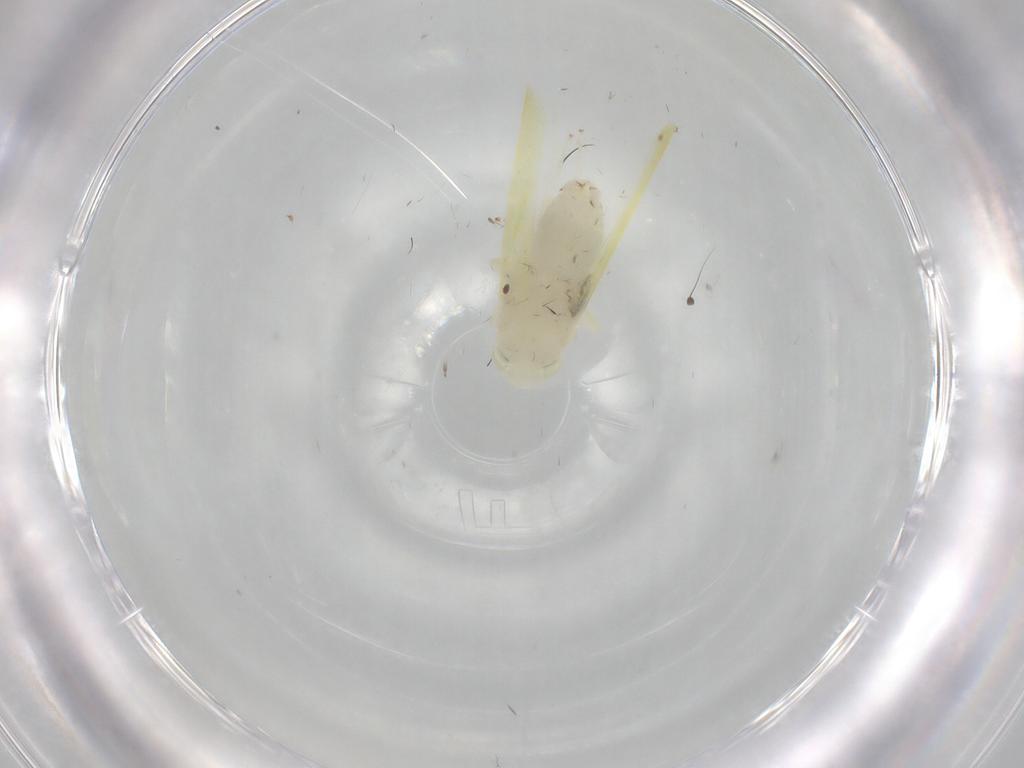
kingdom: Animalia
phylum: Arthropoda
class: Insecta
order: Hemiptera
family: Cicadellidae
